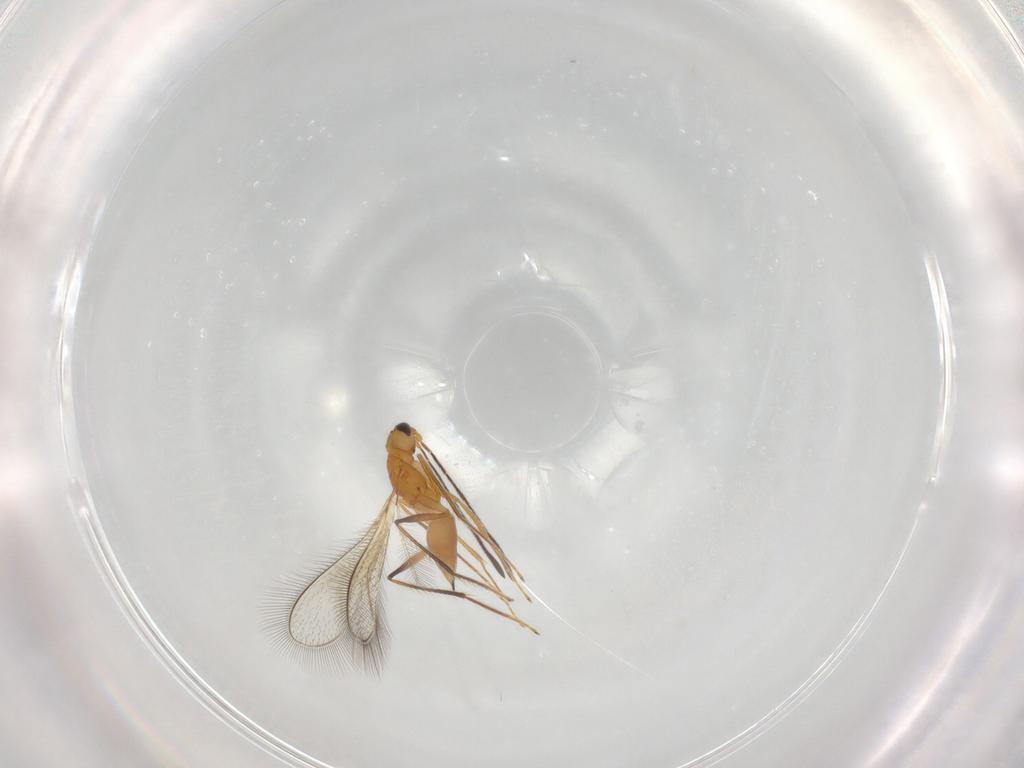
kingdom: Animalia
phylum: Arthropoda
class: Insecta
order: Hymenoptera
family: Mymaridae
